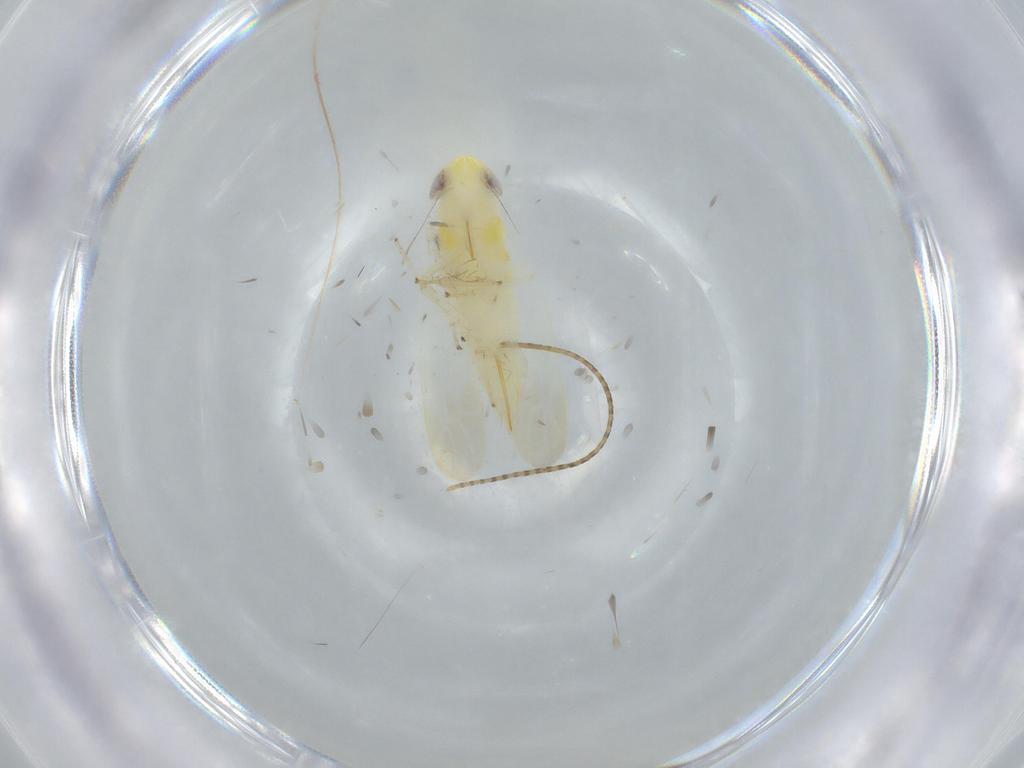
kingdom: Animalia
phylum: Arthropoda
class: Insecta
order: Hemiptera
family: Cicadellidae
